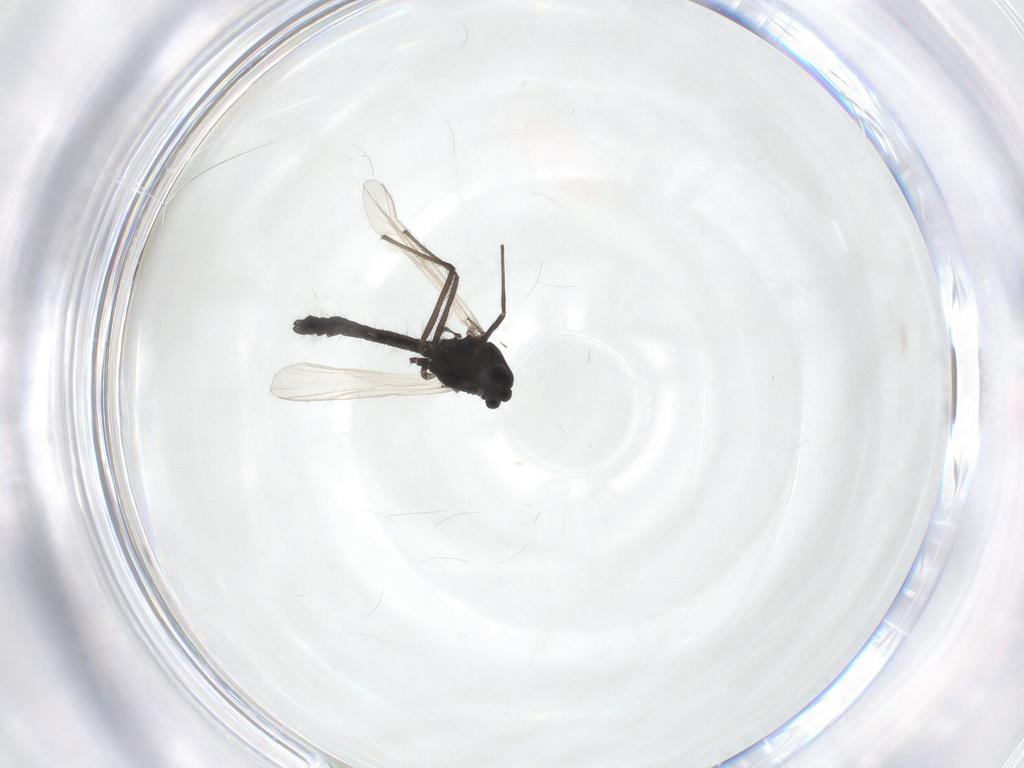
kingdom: Animalia
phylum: Arthropoda
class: Insecta
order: Diptera
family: Chironomidae
